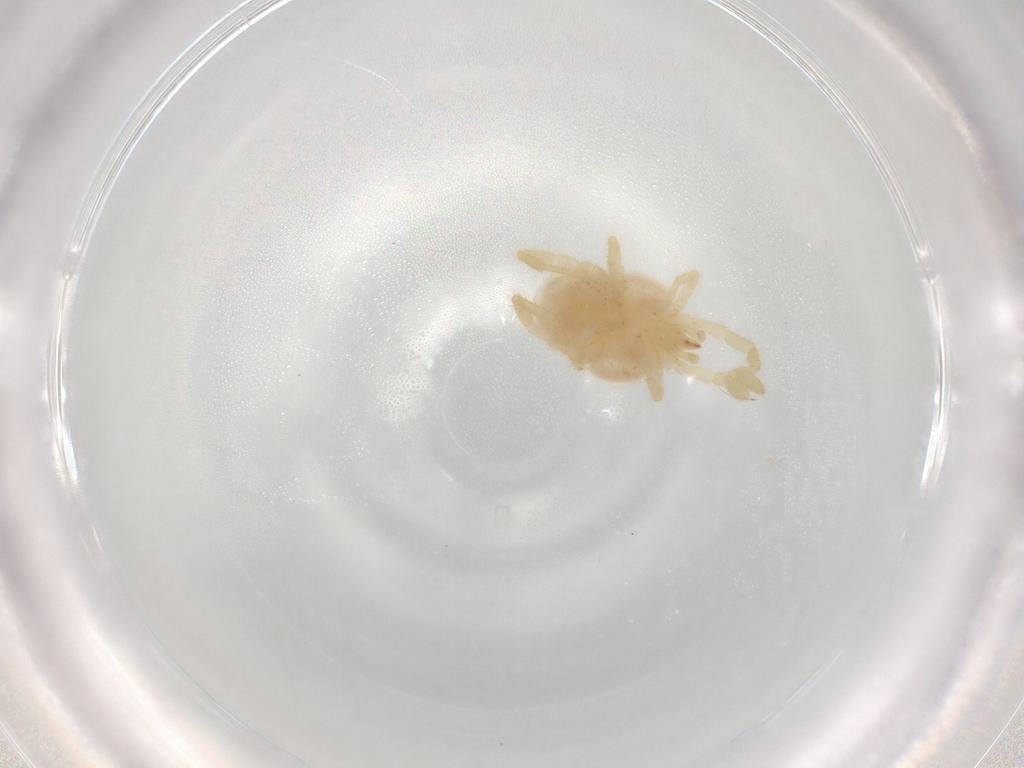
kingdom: Animalia
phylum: Arthropoda
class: Arachnida
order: Trombidiformes
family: Erythraeidae
